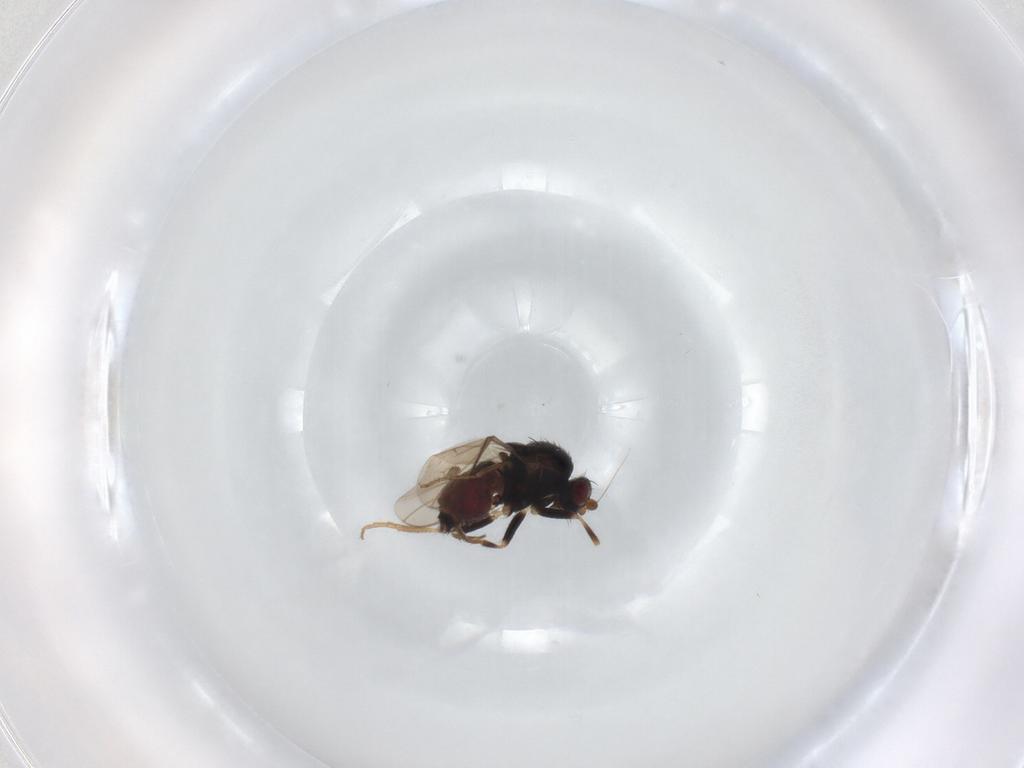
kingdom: Animalia
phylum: Arthropoda
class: Insecta
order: Diptera
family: Sphaeroceridae
